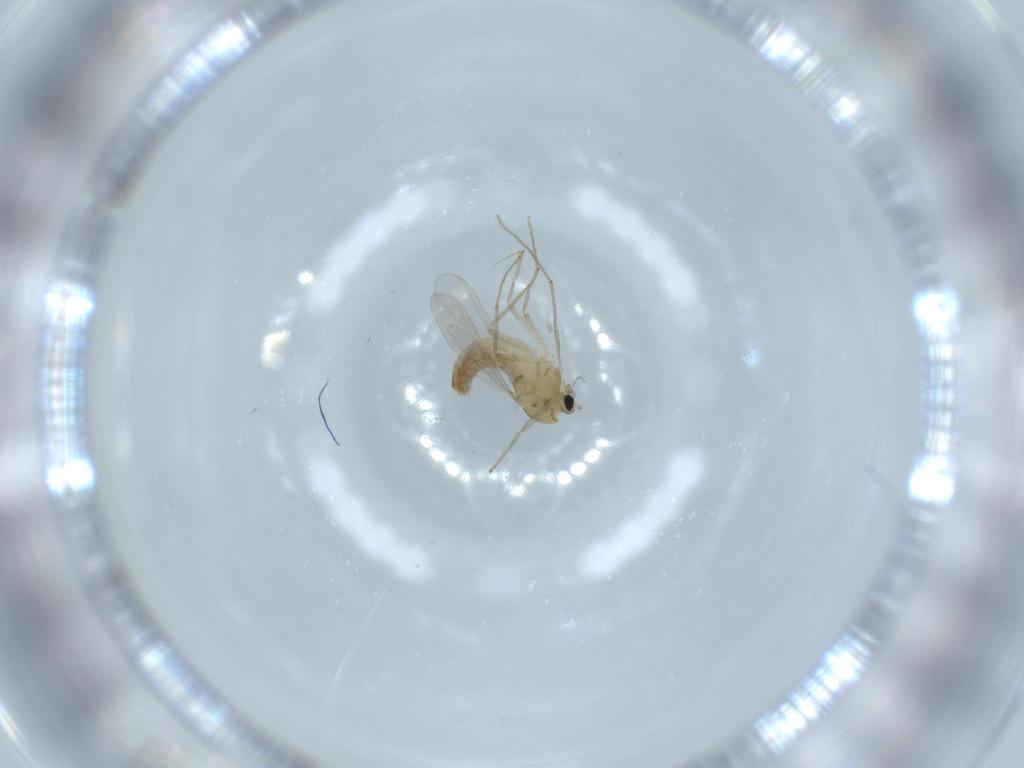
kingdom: Animalia
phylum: Arthropoda
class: Insecta
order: Diptera
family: Chironomidae
